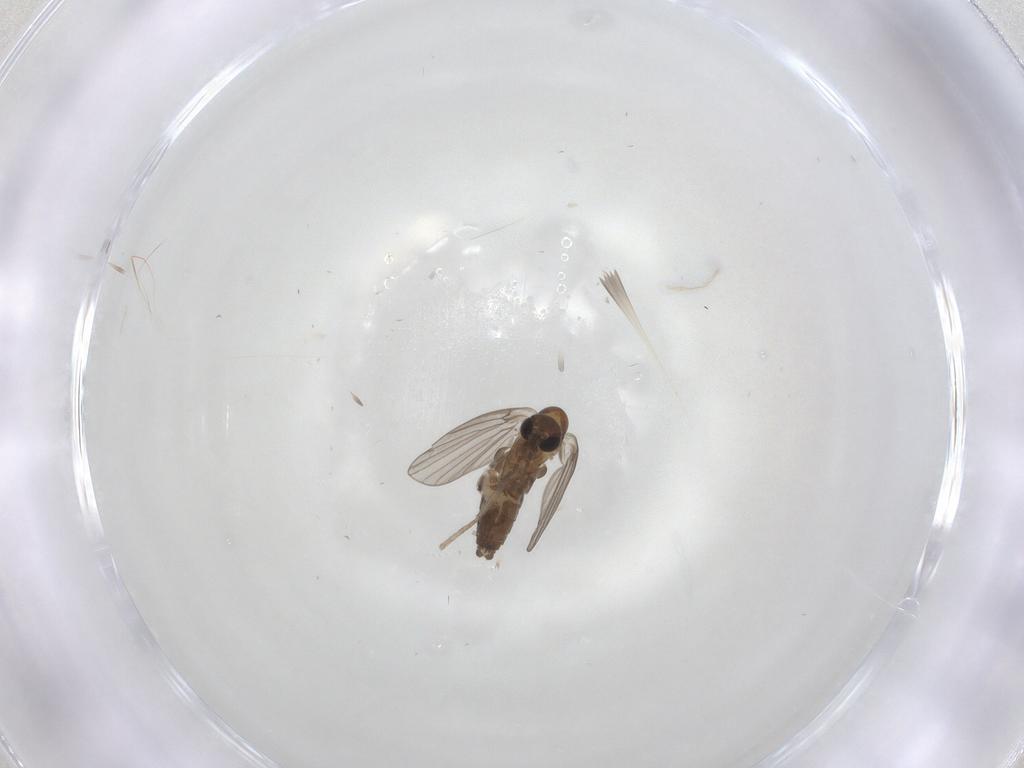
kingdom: Animalia
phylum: Arthropoda
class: Insecta
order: Diptera
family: Psychodidae
